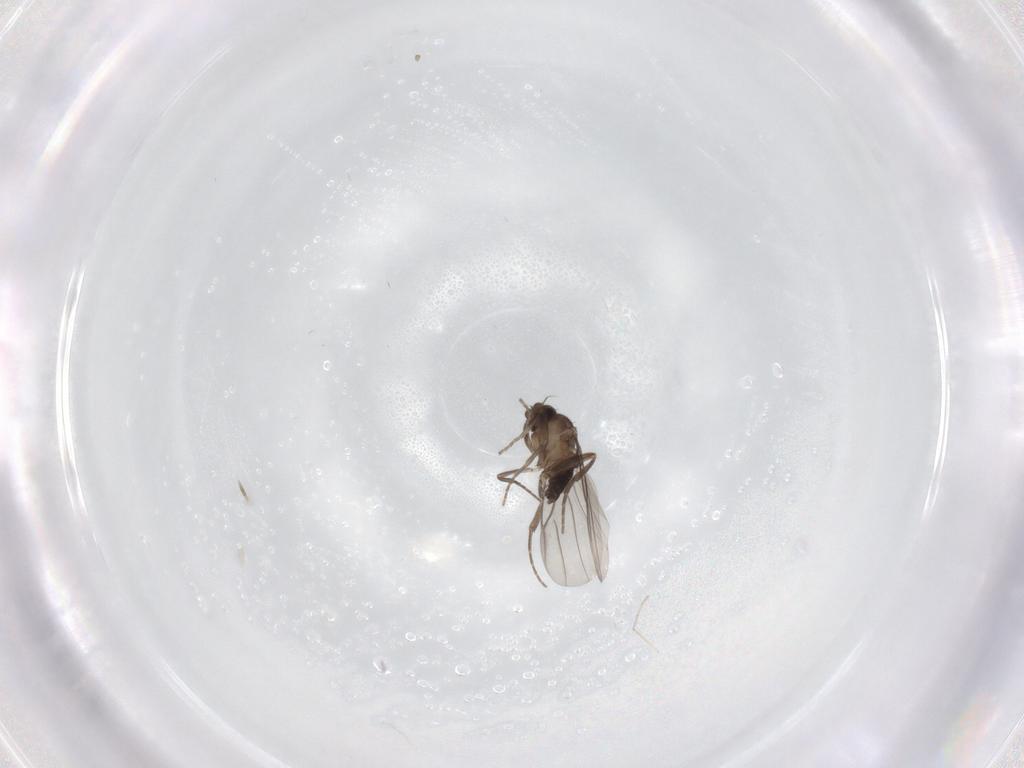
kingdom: Animalia
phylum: Arthropoda
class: Insecta
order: Diptera
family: Phoridae
